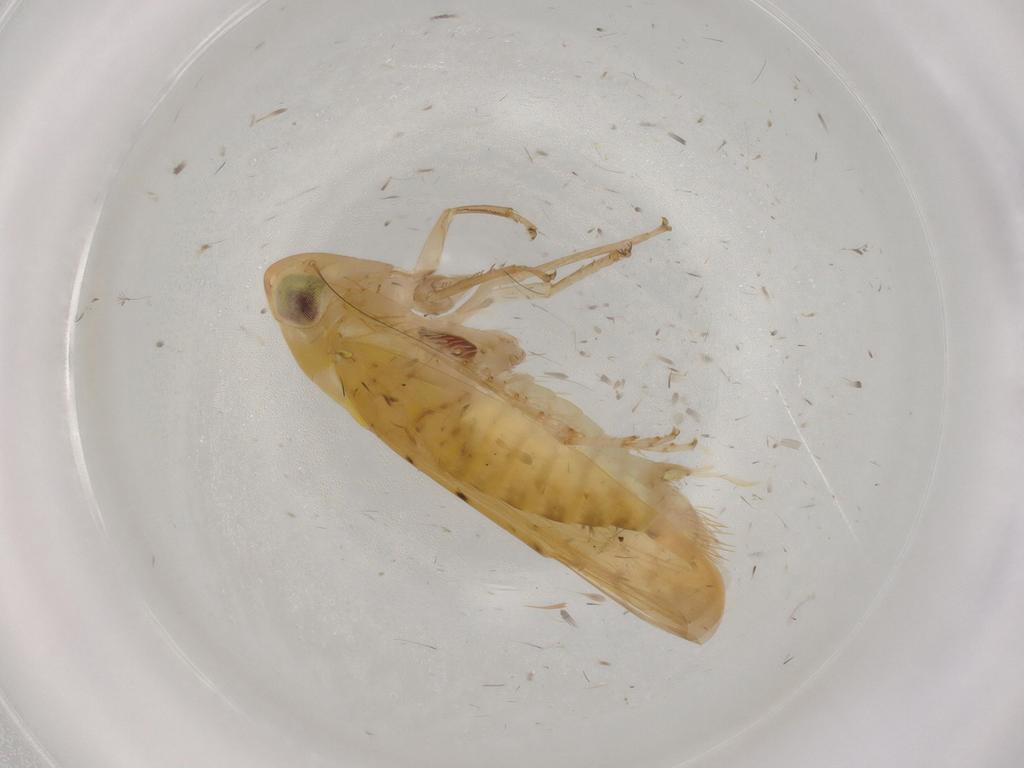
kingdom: Animalia
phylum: Arthropoda
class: Insecta
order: Hemiptera
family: Cicadellidae
